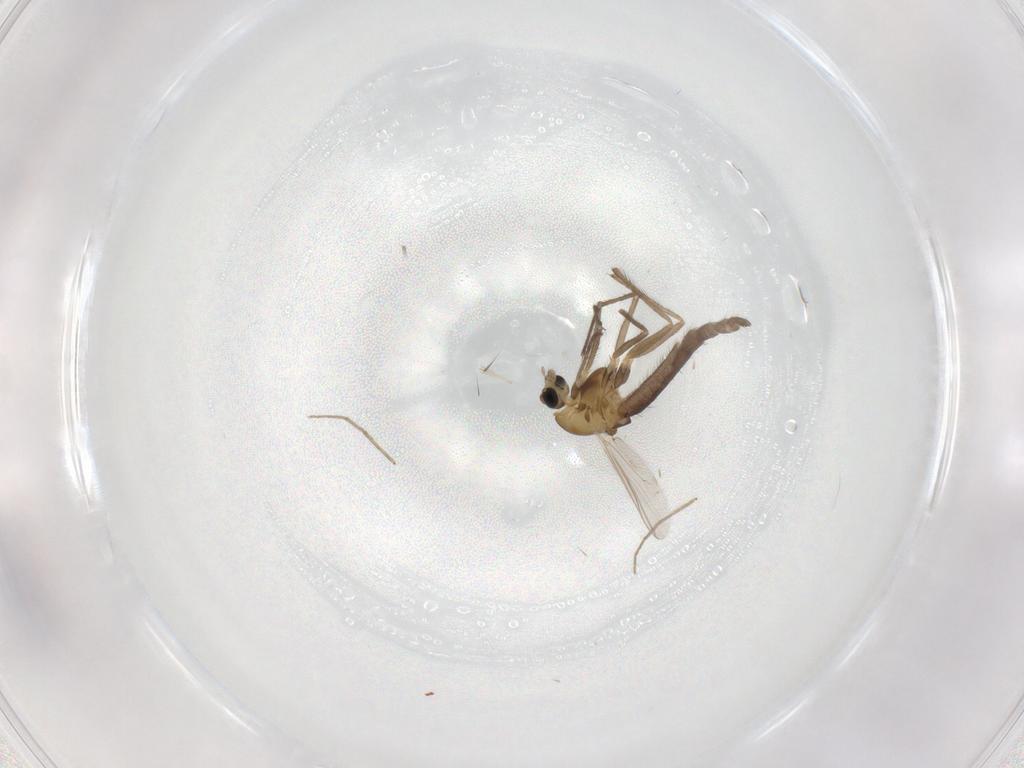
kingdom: Animalia
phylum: Arthropoda
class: Insecta
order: Diptera
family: Chironomidae
